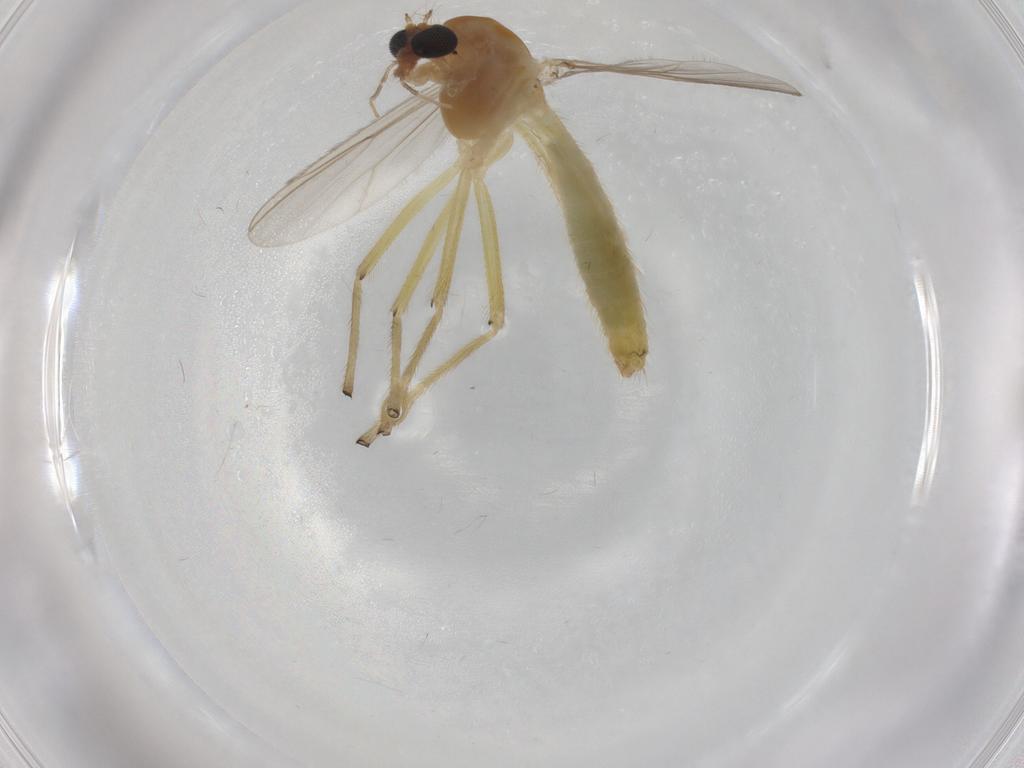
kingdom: Animalia
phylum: Arthropoda
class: Insecta
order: Diptera
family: Chironomidae
